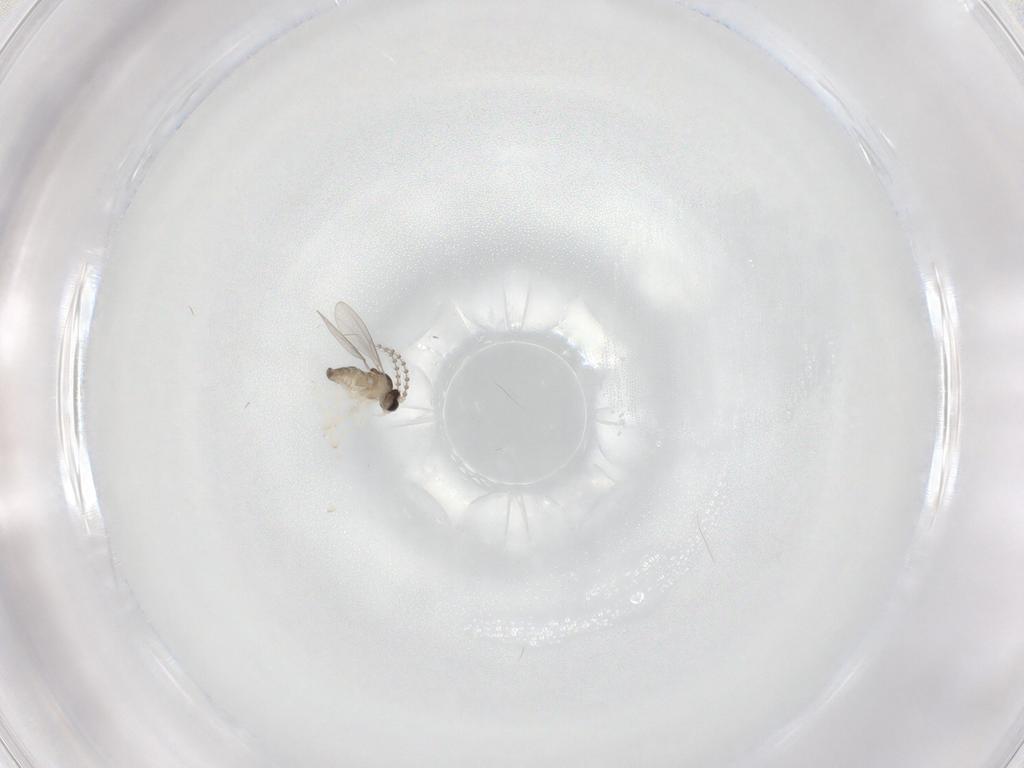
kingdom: Animalia
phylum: Arthropoda
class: Insecta
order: Diptera
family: Cecidomyiidae
